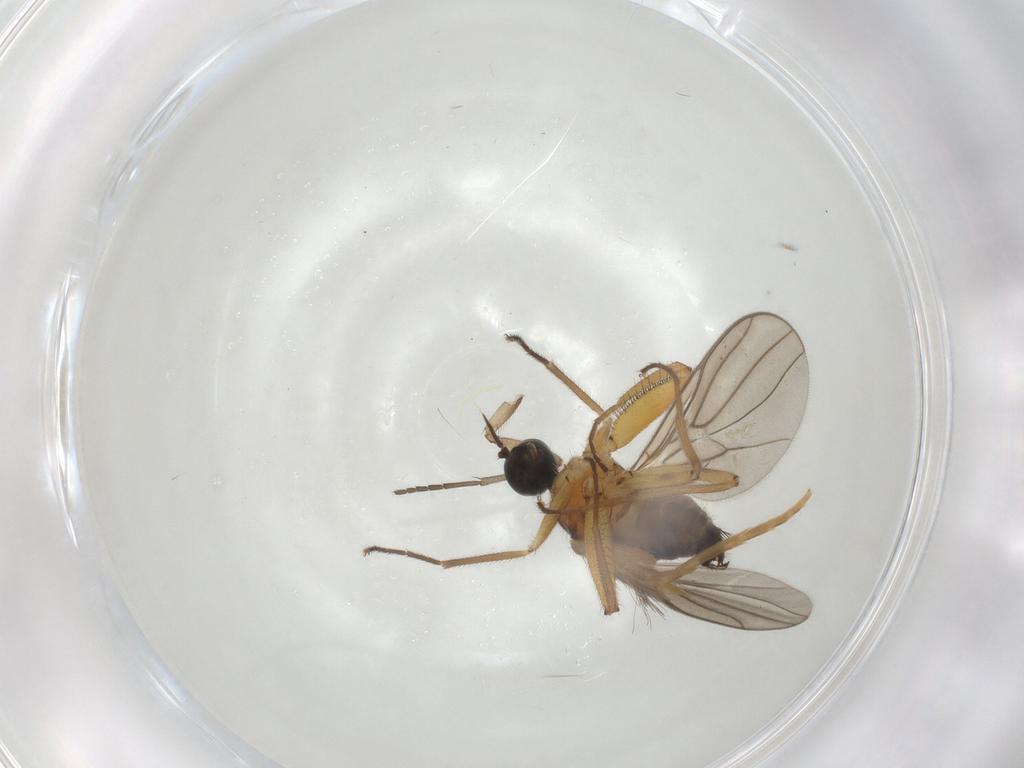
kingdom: Animalia
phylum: Arthropoda
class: Insecta
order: Diptera
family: Hybotidae
